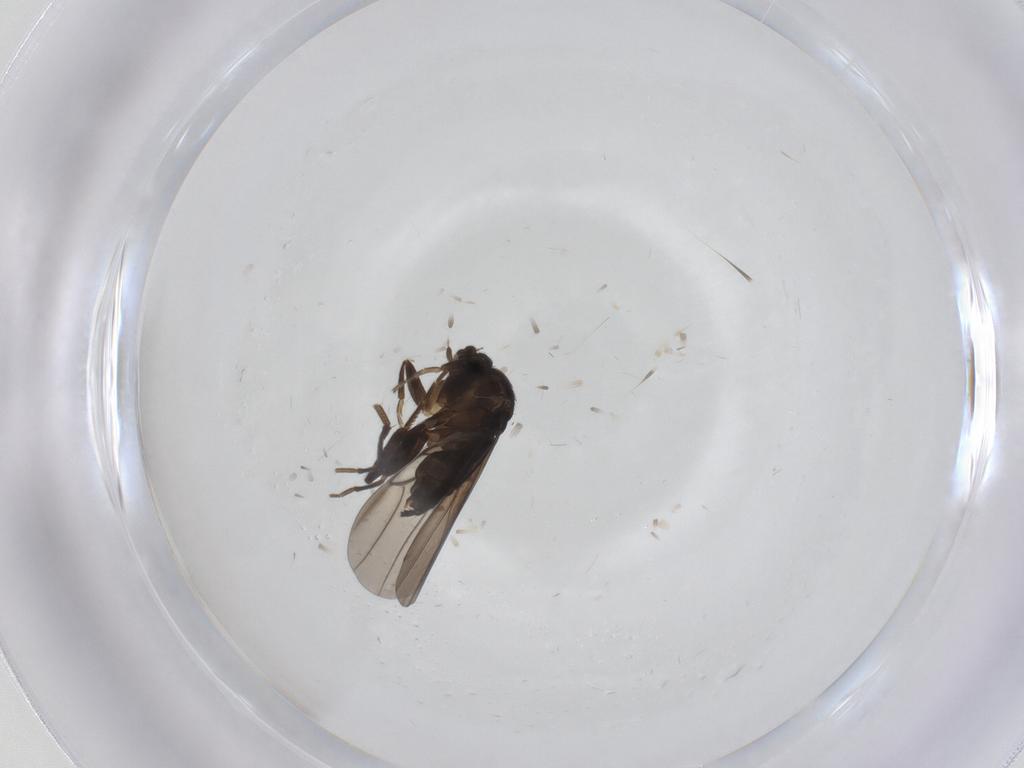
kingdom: Animalia
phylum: Arthropoda
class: Insecta
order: Diptera
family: Phoridae
